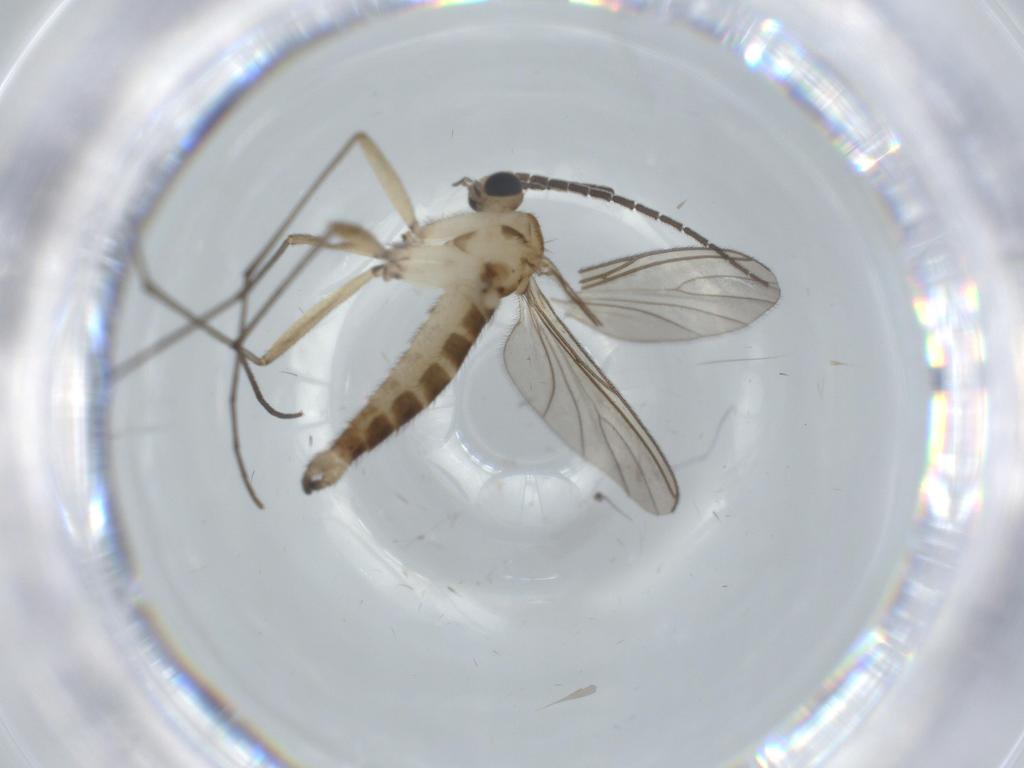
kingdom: Animalia
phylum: Arthropoda
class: Insecta
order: Diptera
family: Sciaridae
